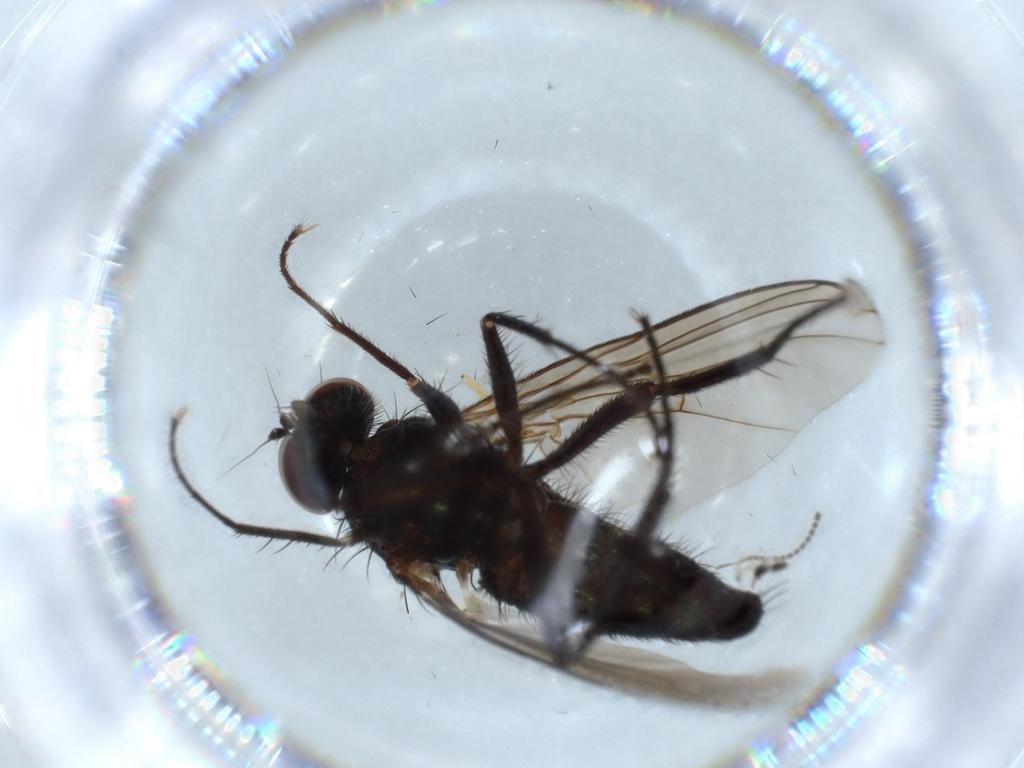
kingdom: Animalia
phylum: Arthropoda
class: Insecta
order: Diptera
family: Dolichopodidae
